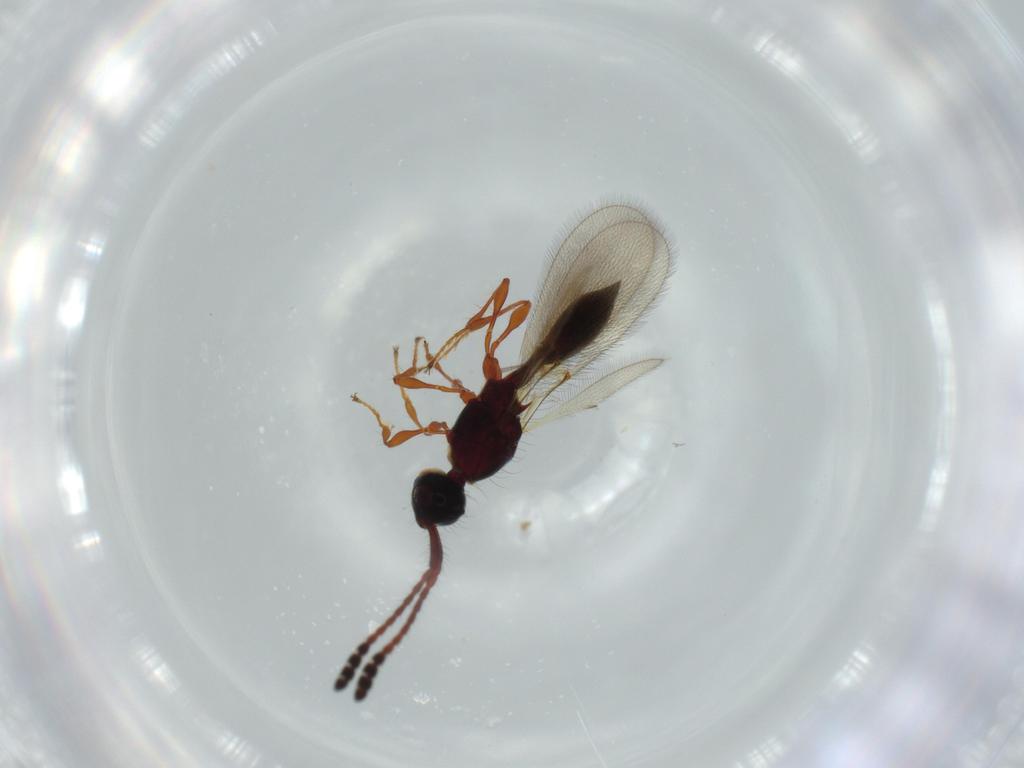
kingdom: Animalia
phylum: Arthropoda
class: Insecta
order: Hymenoptera
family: Diapriidae
